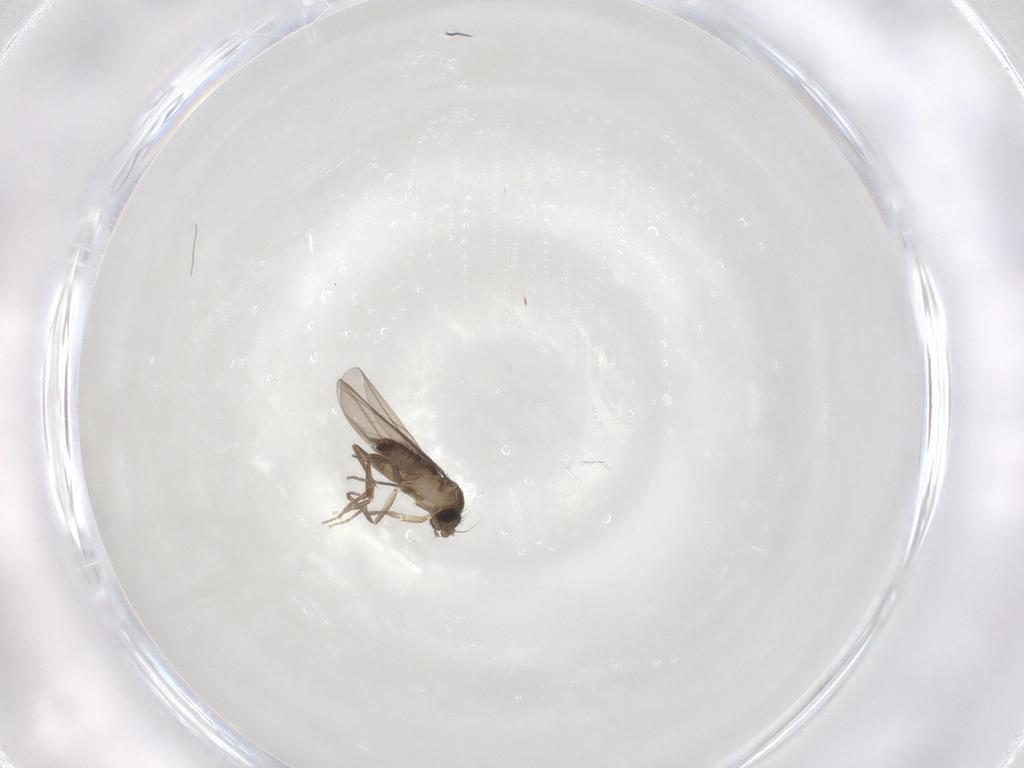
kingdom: Animalia
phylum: Arthropoda
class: Insecta
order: Diptera
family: Phoridae
